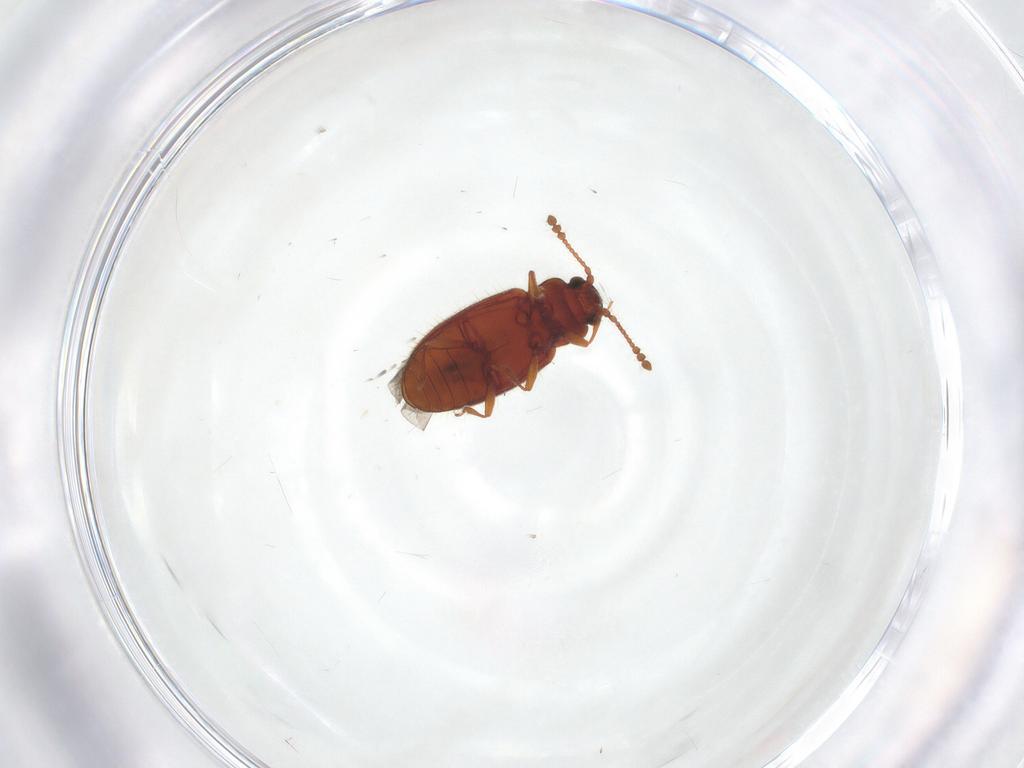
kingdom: Animalia
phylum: Arthropoda
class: Insecta
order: Coleoptera
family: Cryptophagidae
